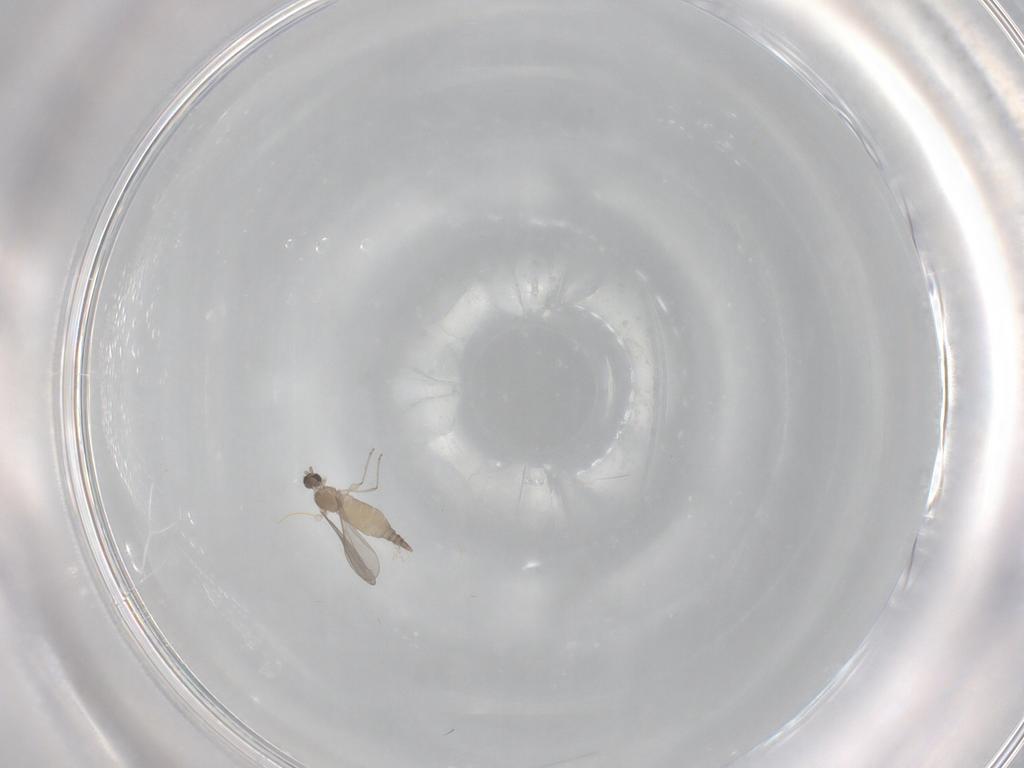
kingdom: Animalia
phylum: Arthropoda
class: Insecta
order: Diptera
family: Dolichopodidae
